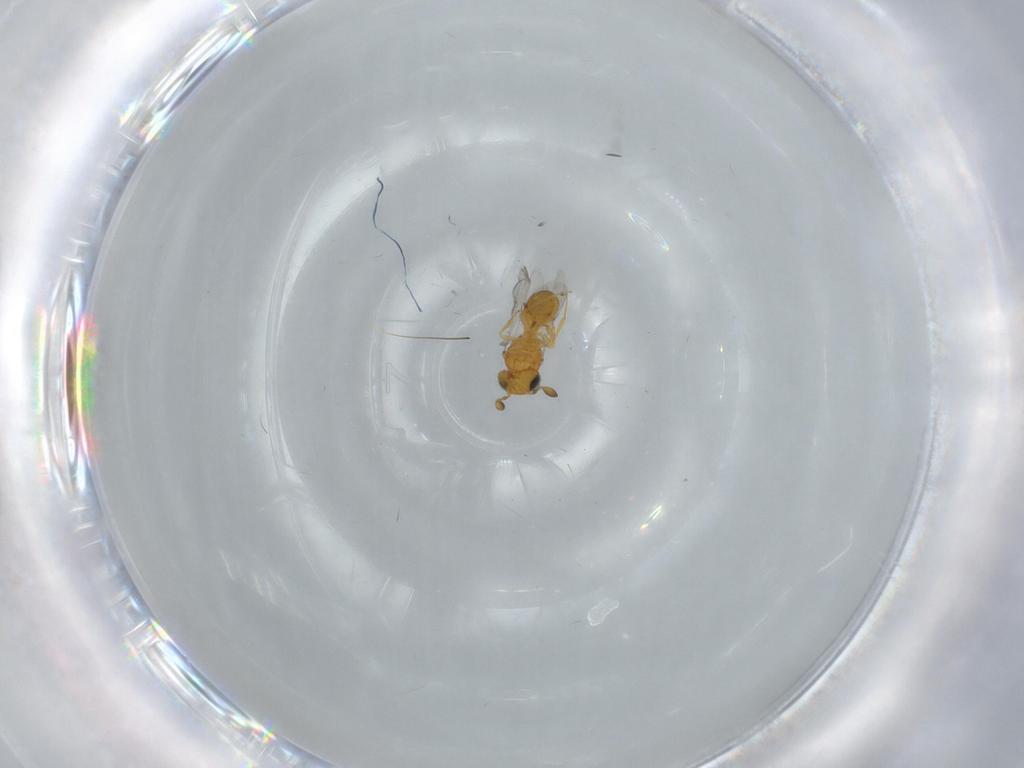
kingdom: Animalia
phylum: Arthropoda
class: Insecta
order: Hymenoptera
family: Scelionidae
